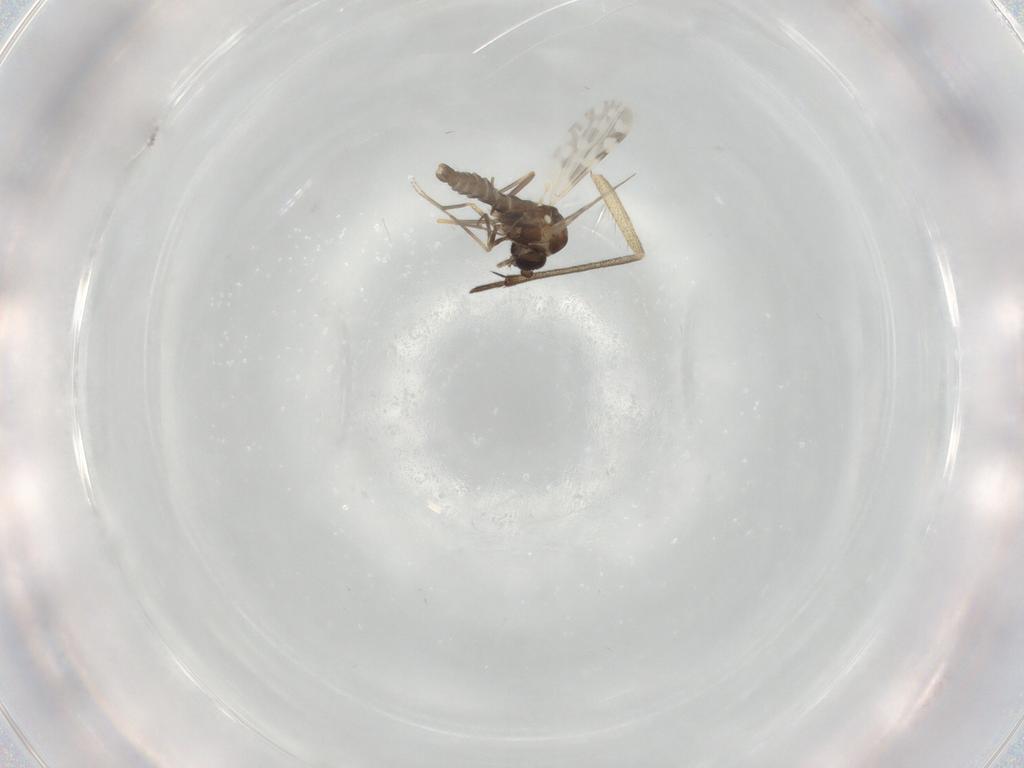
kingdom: Animalia
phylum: Arthropoda
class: Insecta
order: Diptera
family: Ceratopogonidae
